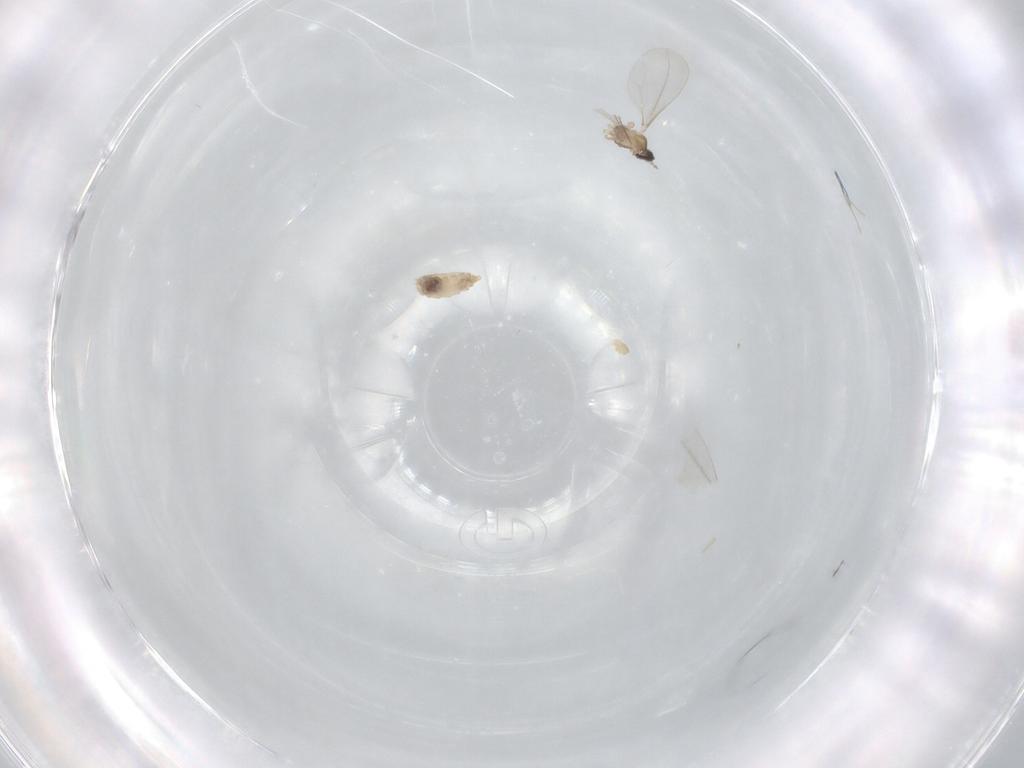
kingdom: Animalia
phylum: Arthropoda
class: Insecta
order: Diptera
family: Cecidomyiidae
